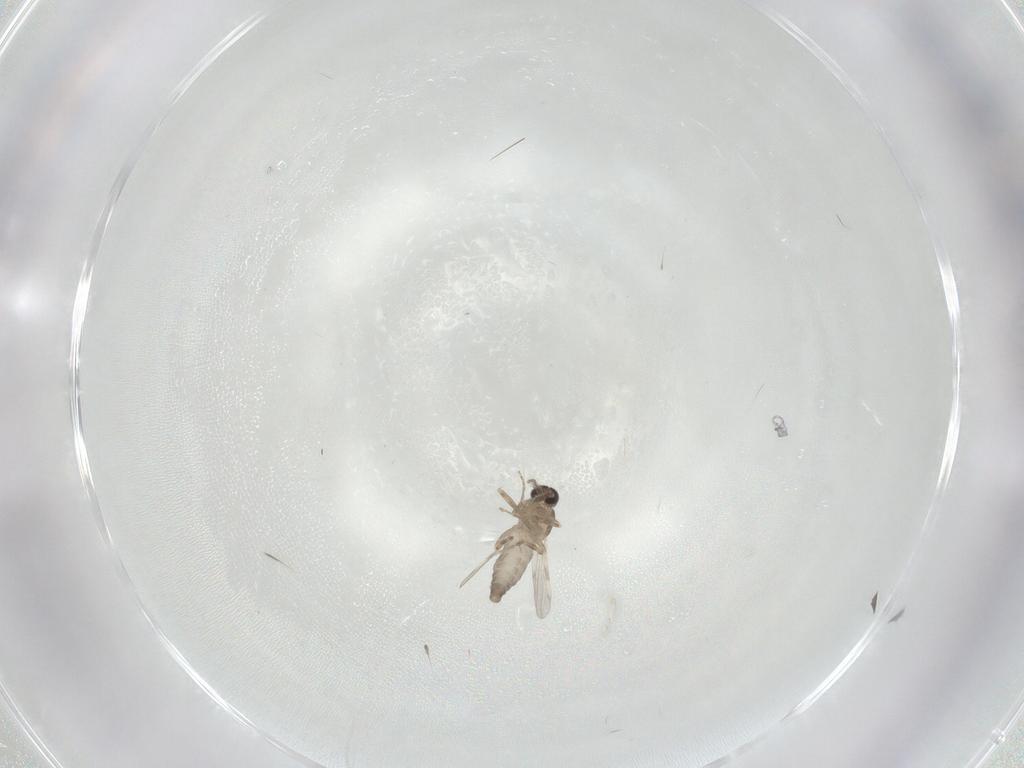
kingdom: Animalia
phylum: Arthropoda
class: Insecta
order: Diptera
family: Ceratopogonidae
